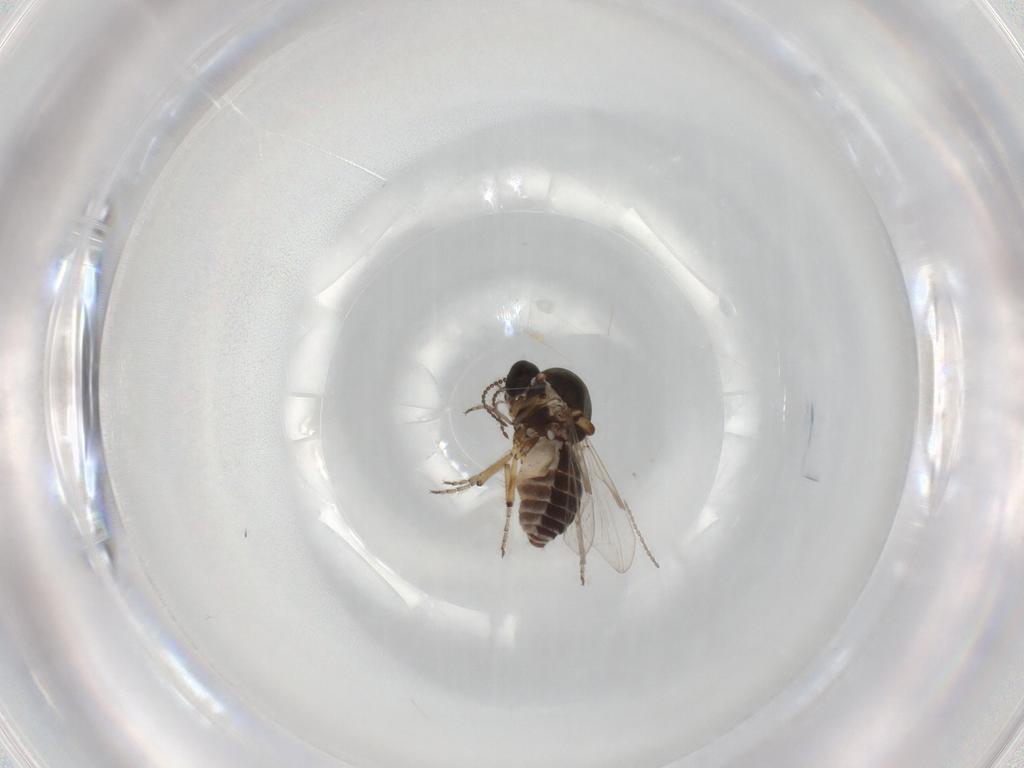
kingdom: Animalia
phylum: Arthropoda
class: Insecta
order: Diptera
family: Ceratopogonidae
